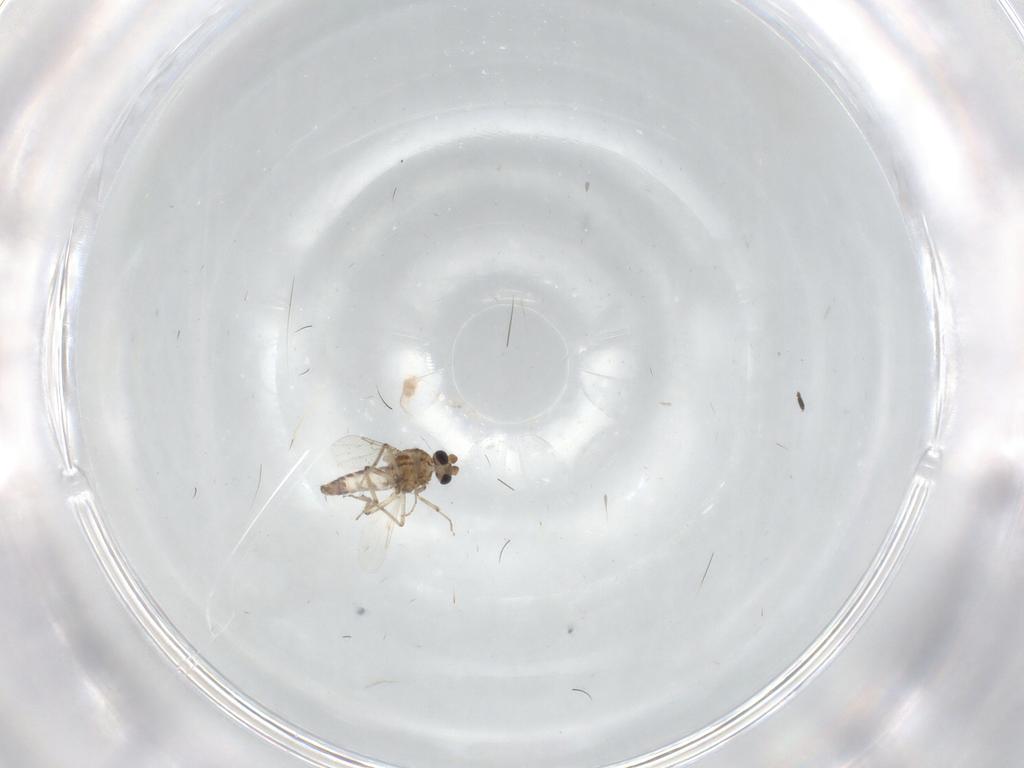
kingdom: Animalia
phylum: Arthropoda
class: Insecta
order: Diptera
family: Ceratopogonidae
